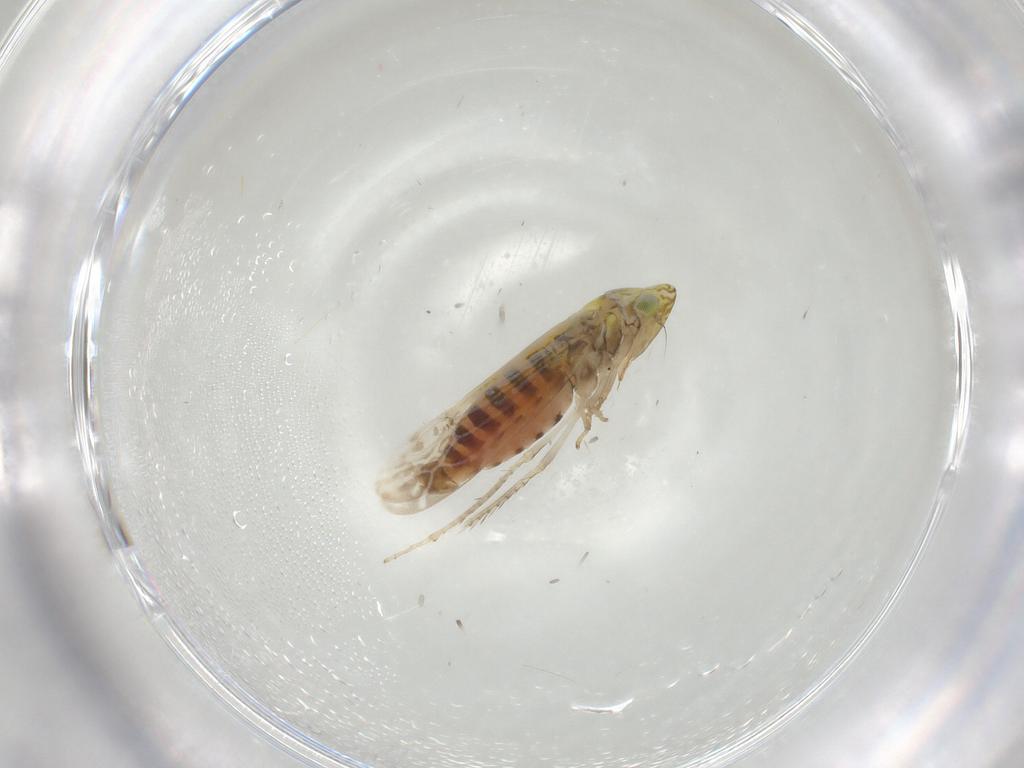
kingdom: Animalia
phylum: Arthropoda
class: Insecta
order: Hemiptera
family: Cicadellidae
